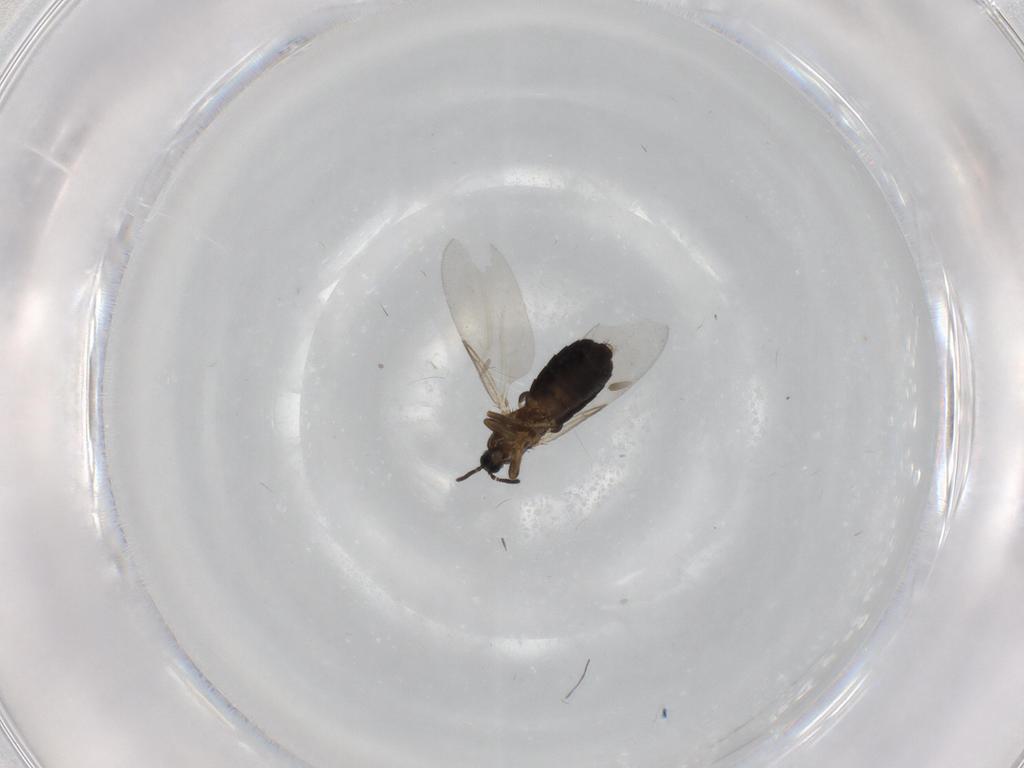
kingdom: Animalia
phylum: Arthropoda
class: Insecta
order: Diptera
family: Scatopsidae
